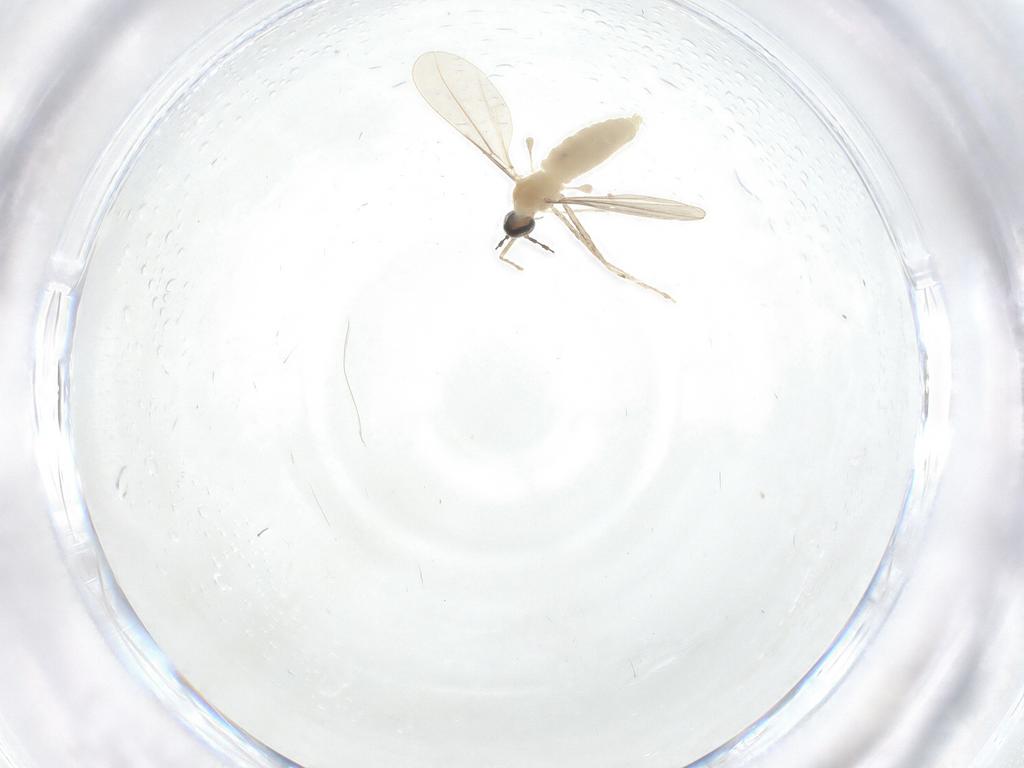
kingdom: Animalia
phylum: Arthropoda
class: Insecta
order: Diptera
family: Cecidomyiidae
